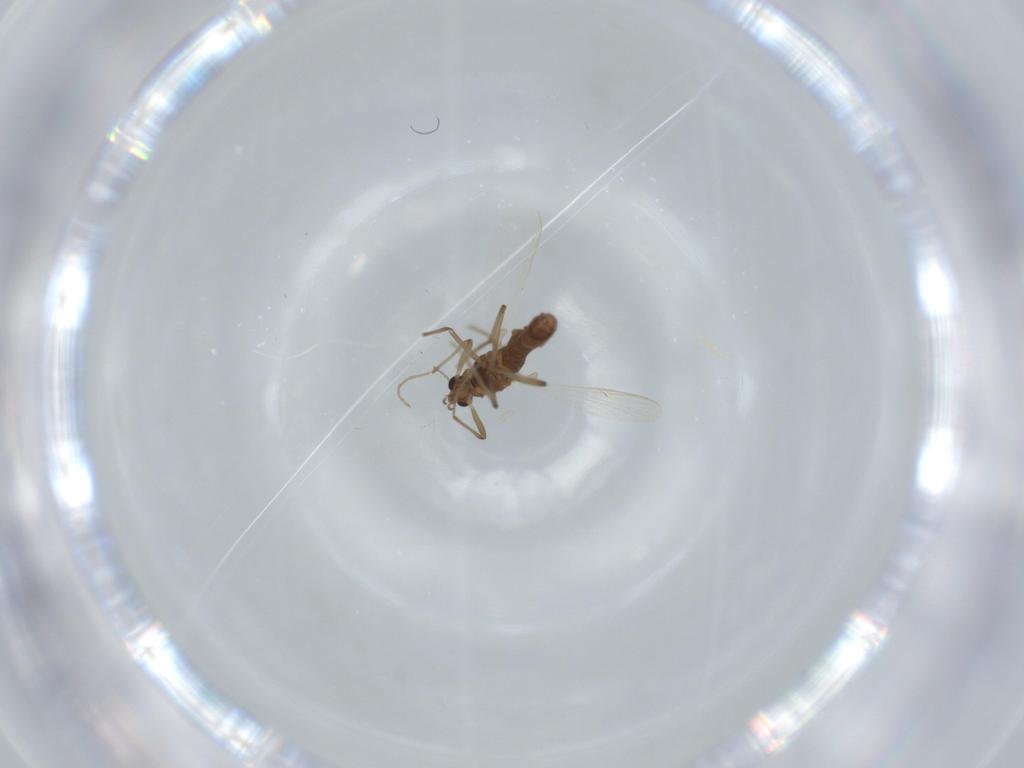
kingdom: Animalia
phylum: Arthropoda
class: Insecta
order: Diptera
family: Chironomidae
